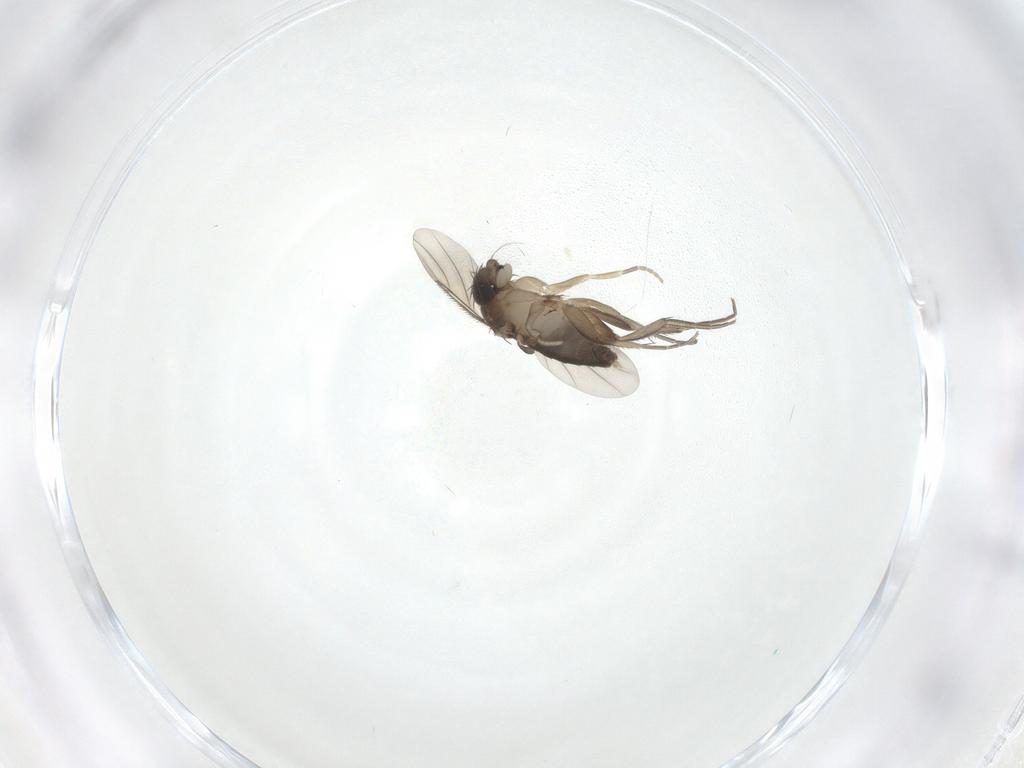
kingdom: Animalia
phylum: Arthropoda
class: Insecta
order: Diptera
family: Phoridae
